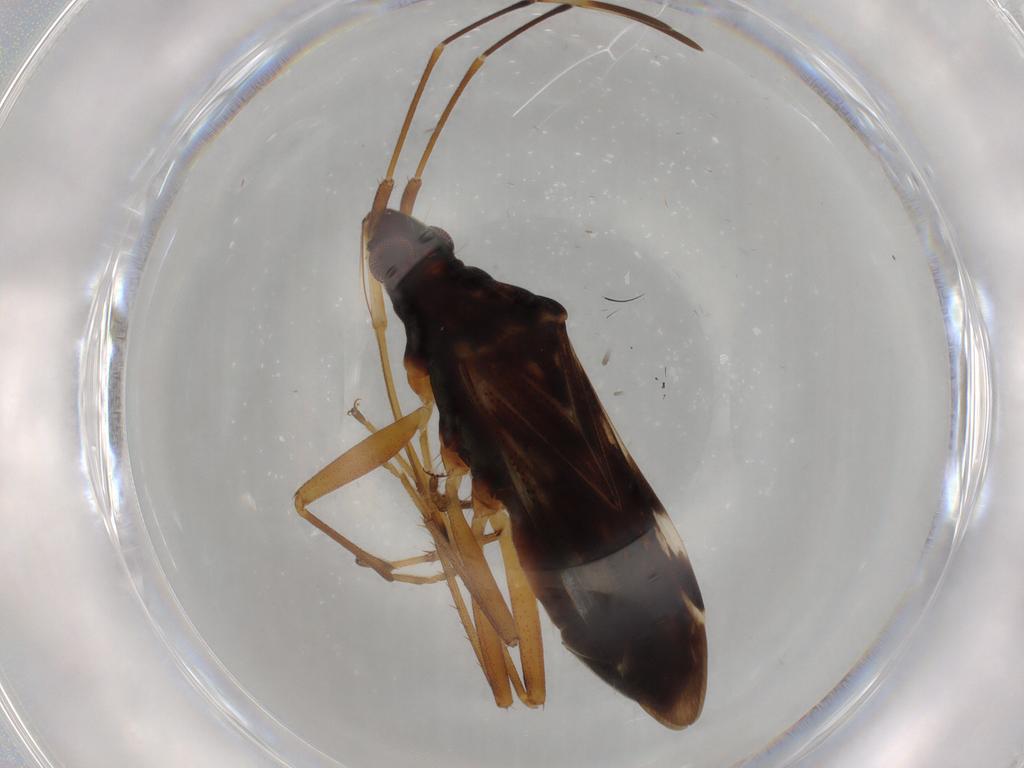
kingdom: Animalia
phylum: Arthropoda
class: Insecta
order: Hemiptera
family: Rhyparochromidae
